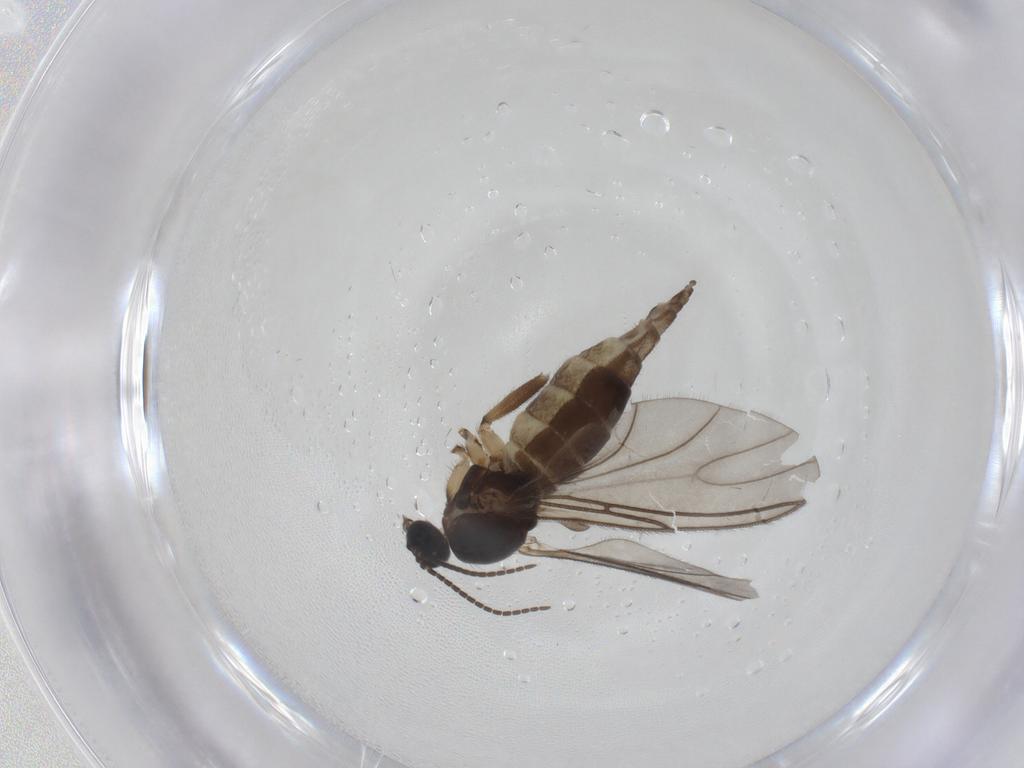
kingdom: Animalia
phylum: Arthropoda
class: Insecta
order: Diptera
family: Sciaridae
